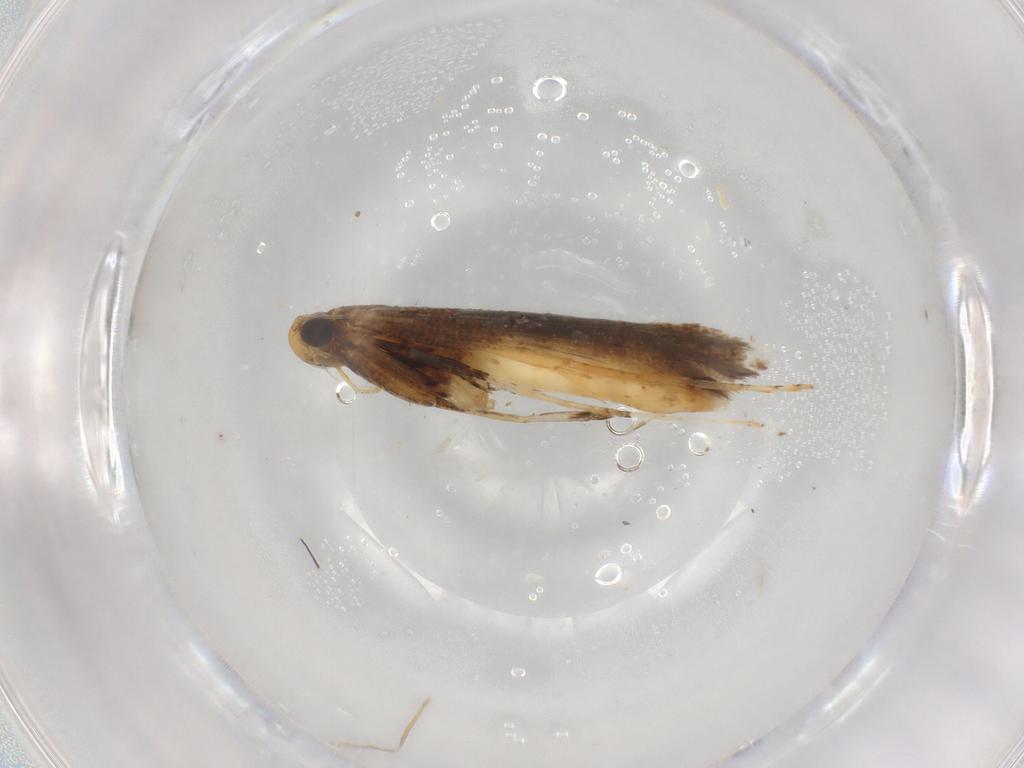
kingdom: Animalia
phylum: Arthropoda
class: Insecta
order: Lepidoptera
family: Gracillariidae
